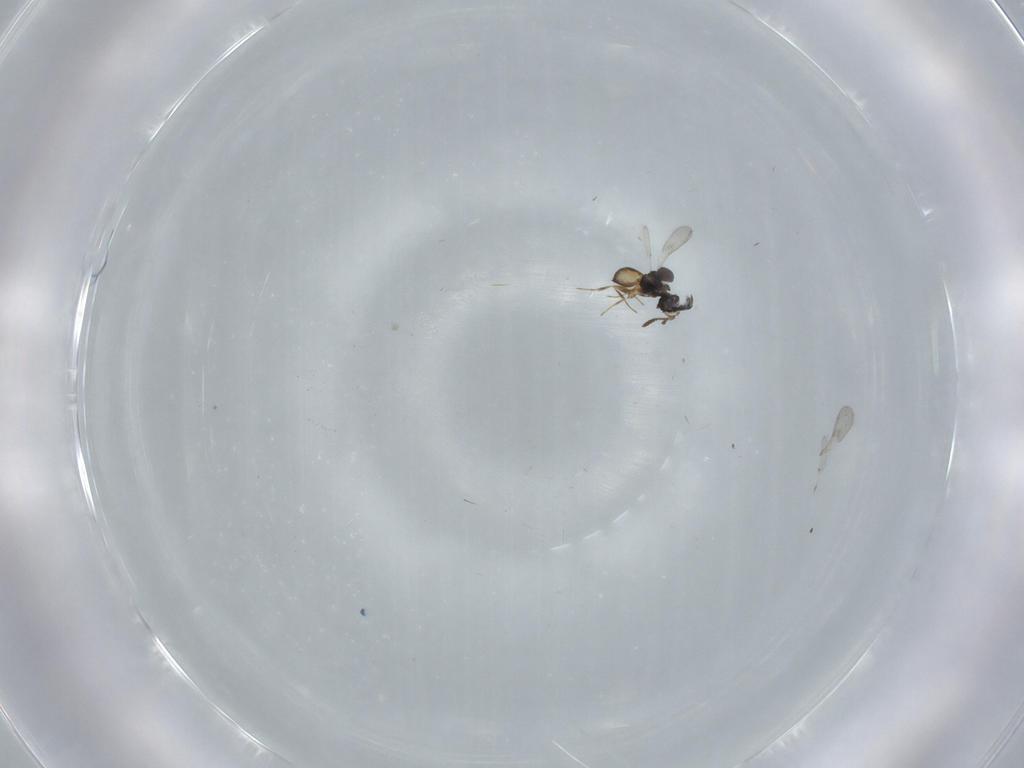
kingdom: Animalia
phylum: Arthropoda
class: Insecta
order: Hymenoptera
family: Scelionidae
